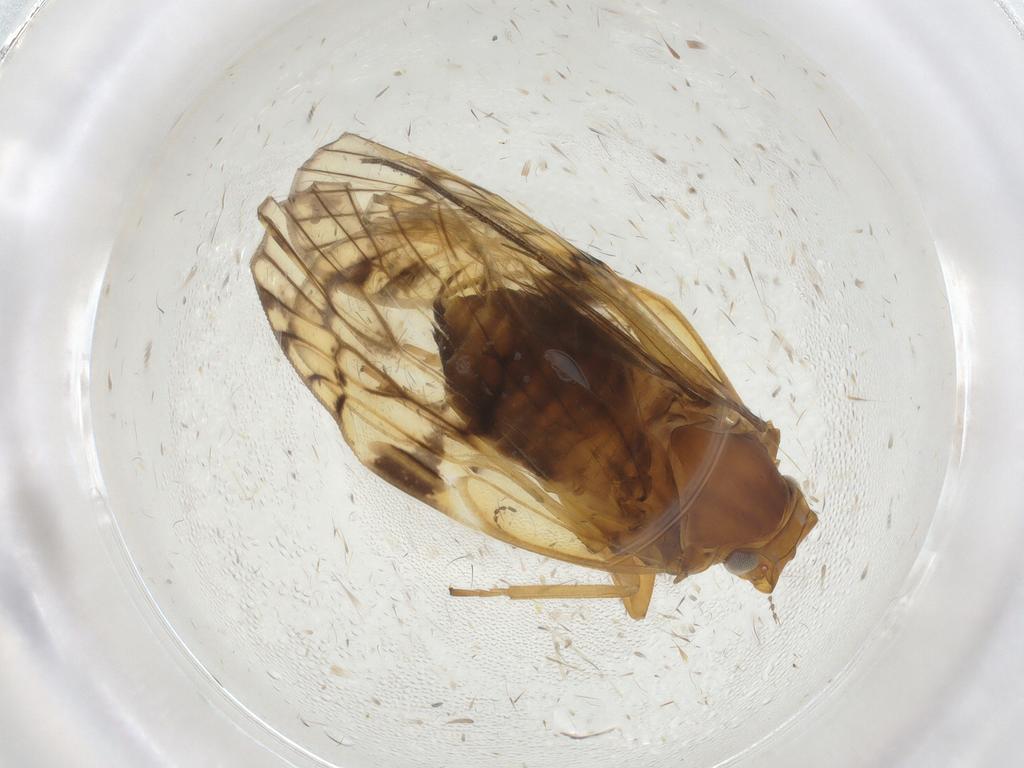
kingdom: Animalia
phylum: Arthropoda
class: Insecta
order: Hemiptera
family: Cixiidae
